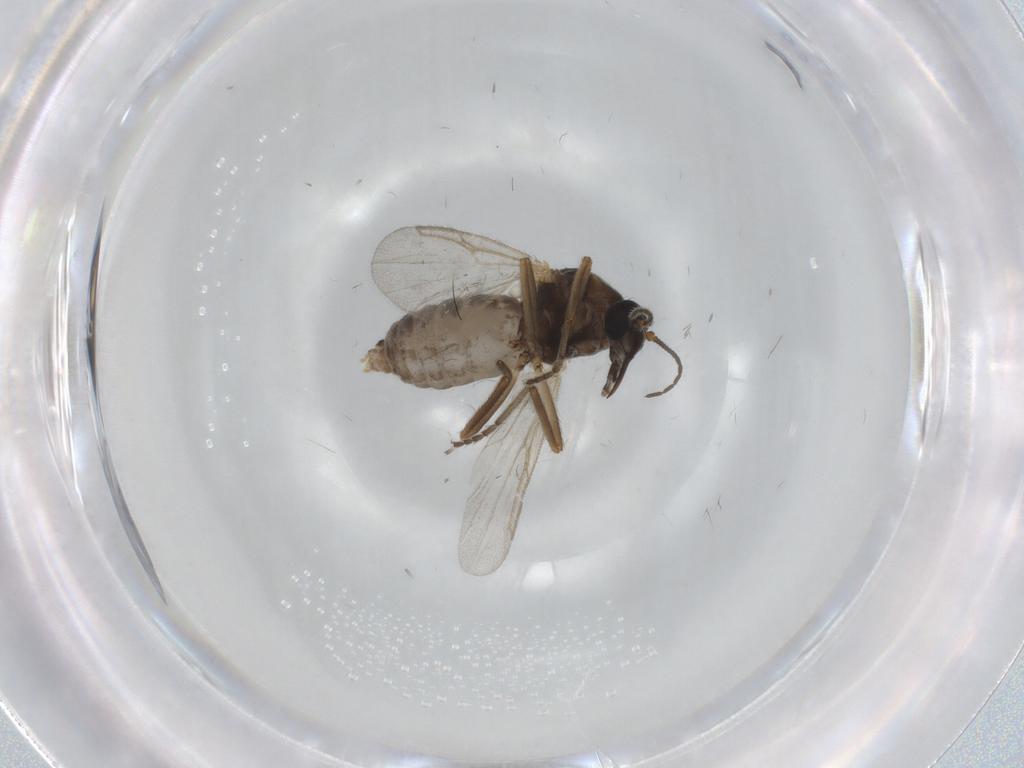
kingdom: Animalia
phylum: Arthropoda
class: Insecta
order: Diptera
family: Ceratopogonidae
